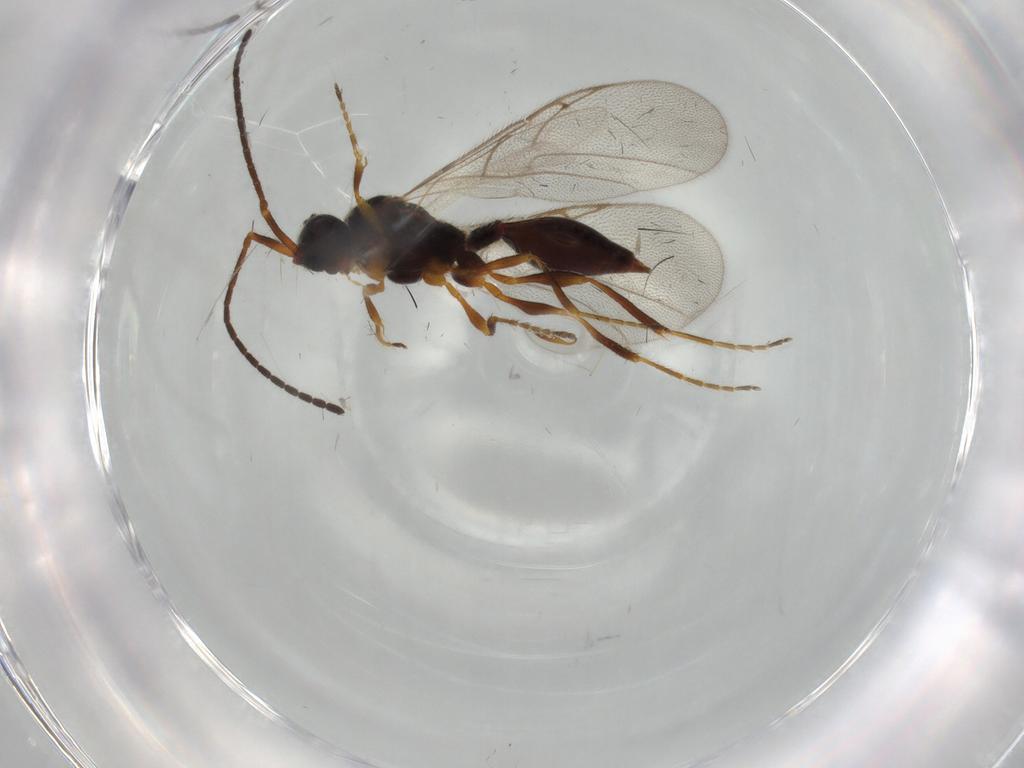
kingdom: Animalia
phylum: Arthropoda
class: Insecta
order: Hymenoptera
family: Diapriidae
